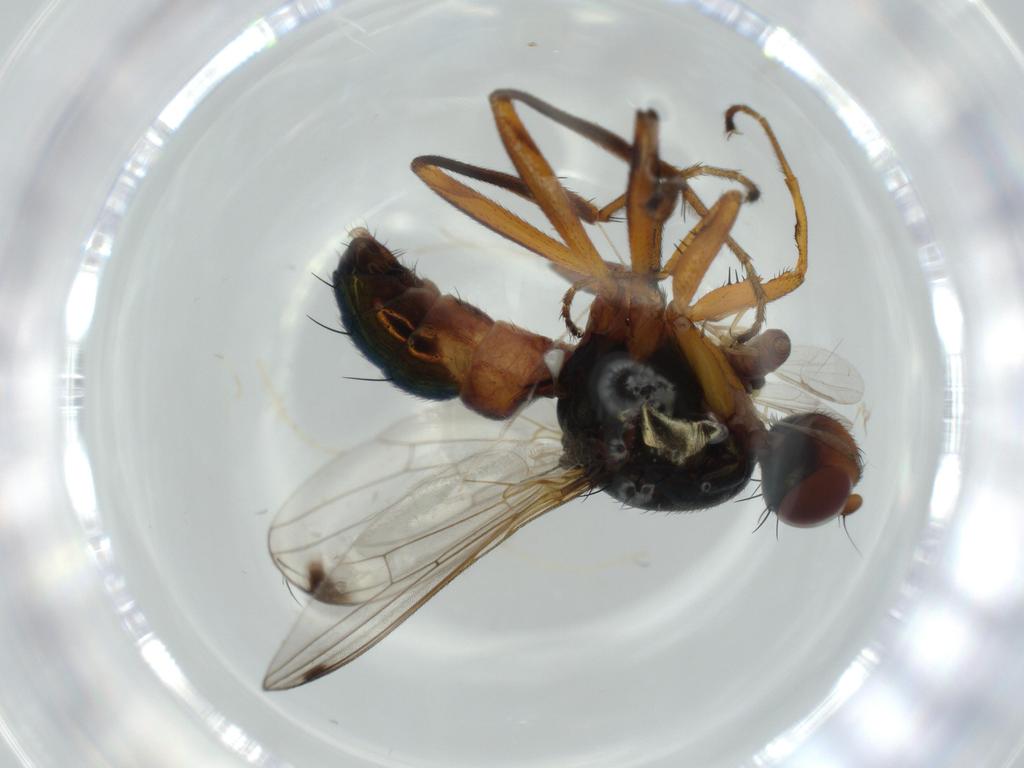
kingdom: Animalia
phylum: Arthropoda
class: Insecta
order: Diptera
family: Ceratopogonidae
